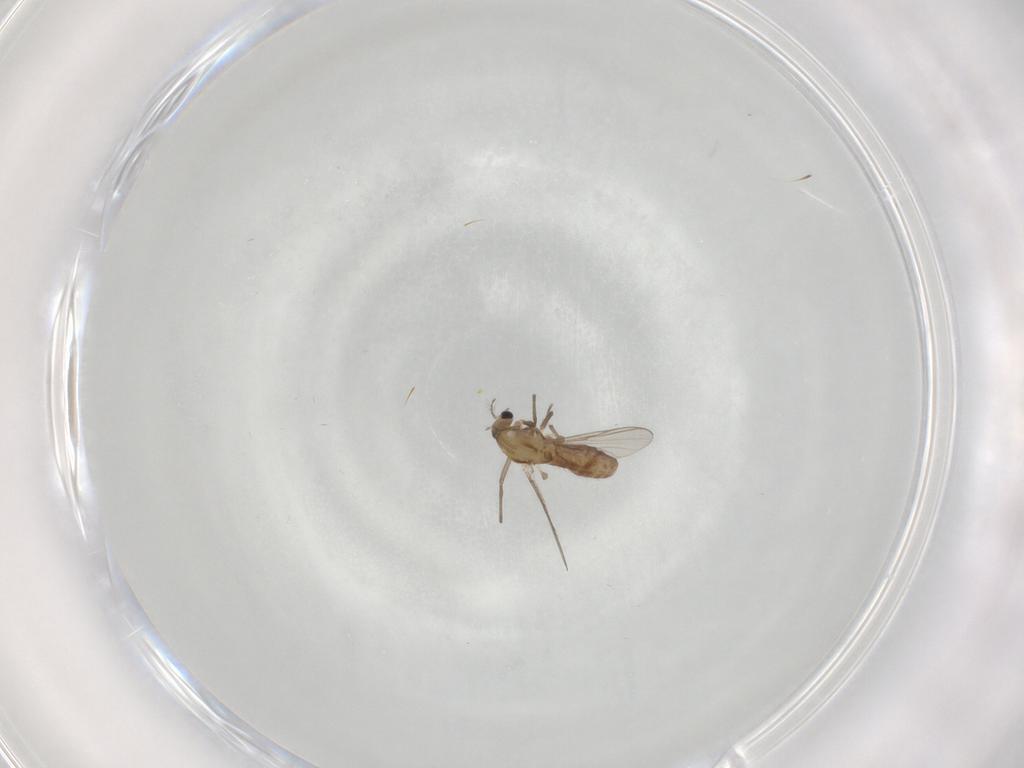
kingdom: Animalia
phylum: Arthropoda
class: Insecta
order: Diptera
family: Chironomidae
